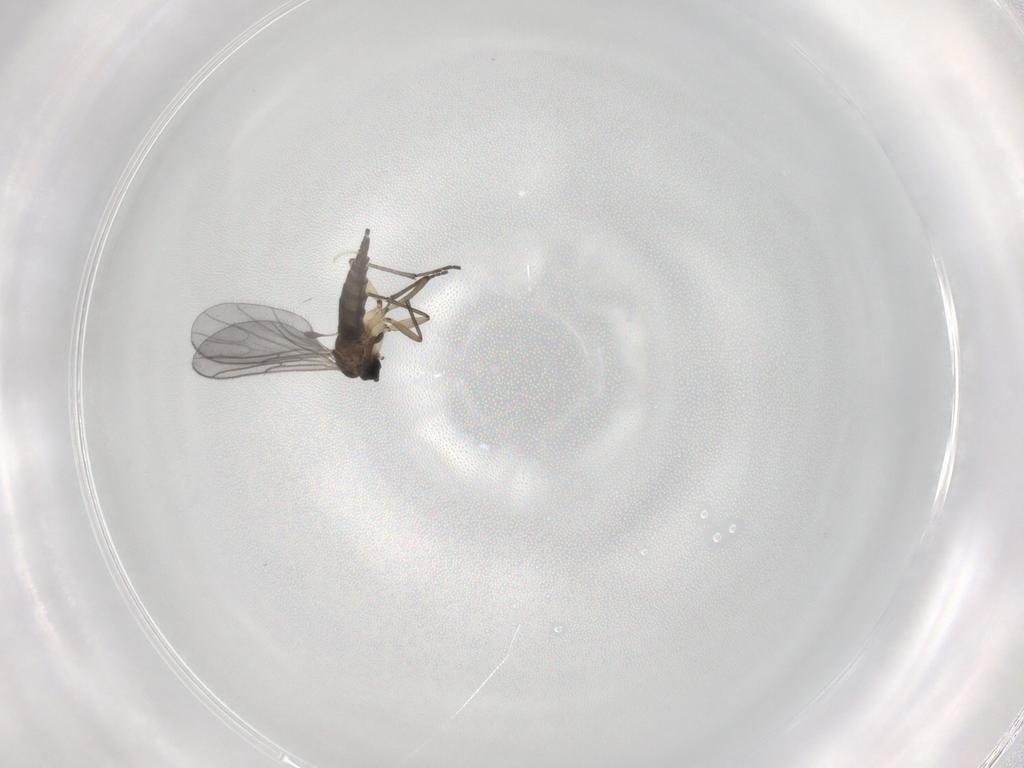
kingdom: Animalia
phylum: Arthropoda
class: Insecta
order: Diptera
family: Sciaridae
